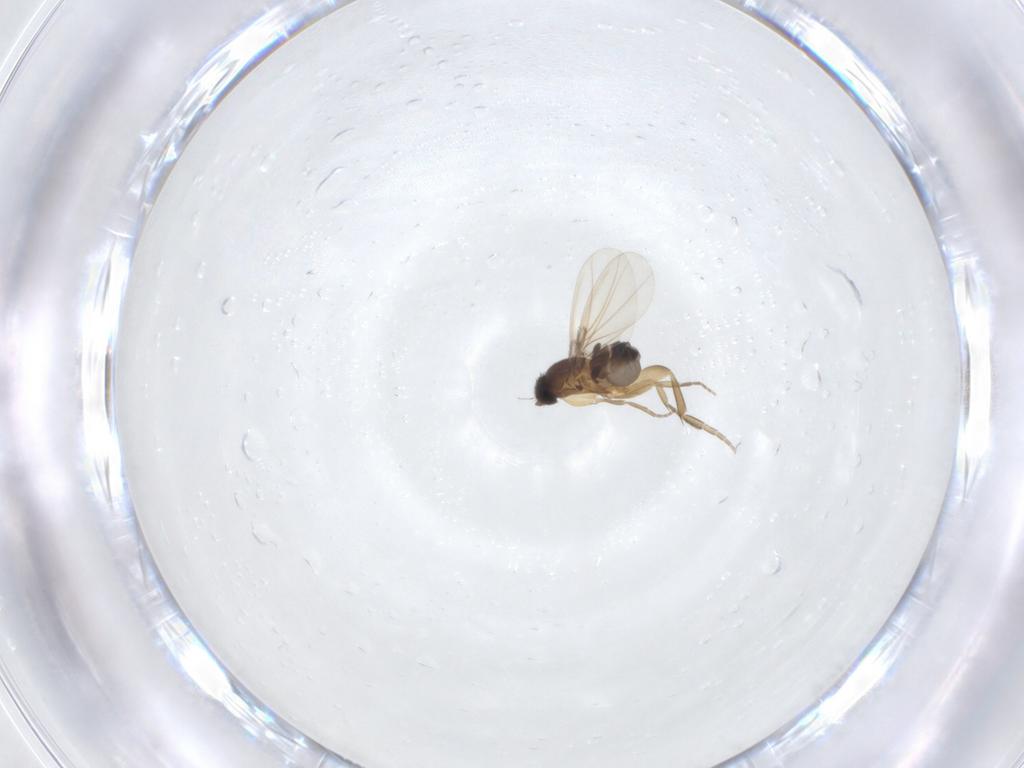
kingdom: Animalia
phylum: Arthropoda
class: Insecta
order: Diptera
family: Phoridae
